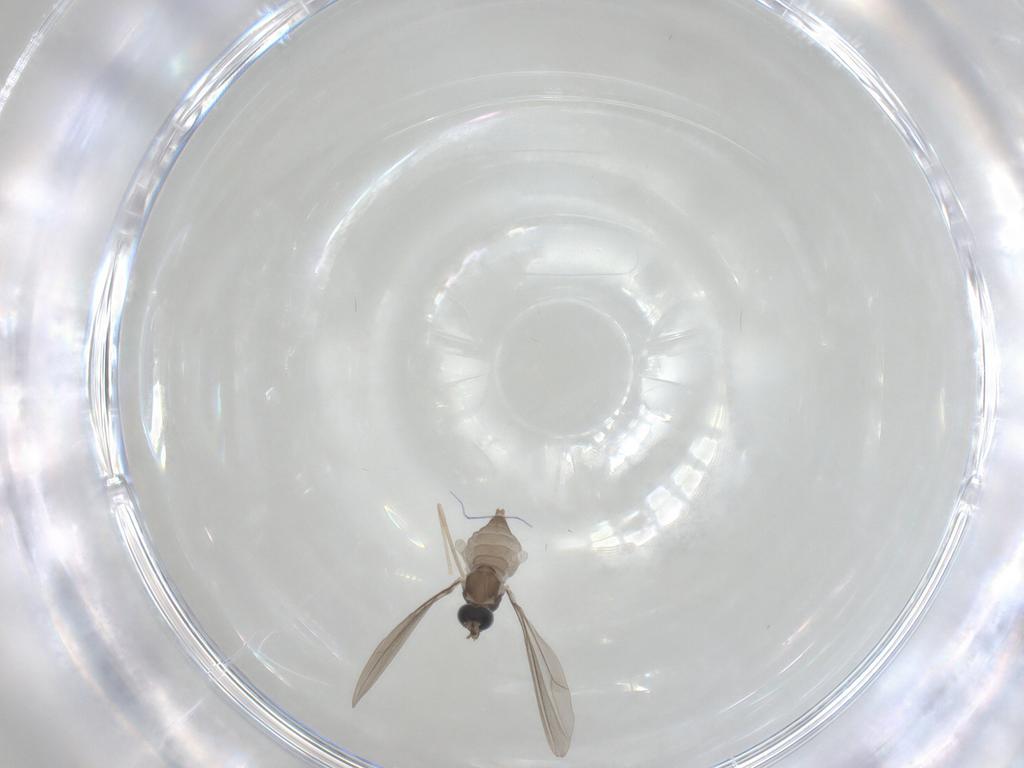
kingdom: Animalia
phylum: Arthropoda
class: Insecta
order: Diptera
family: Cecidomyiidae
